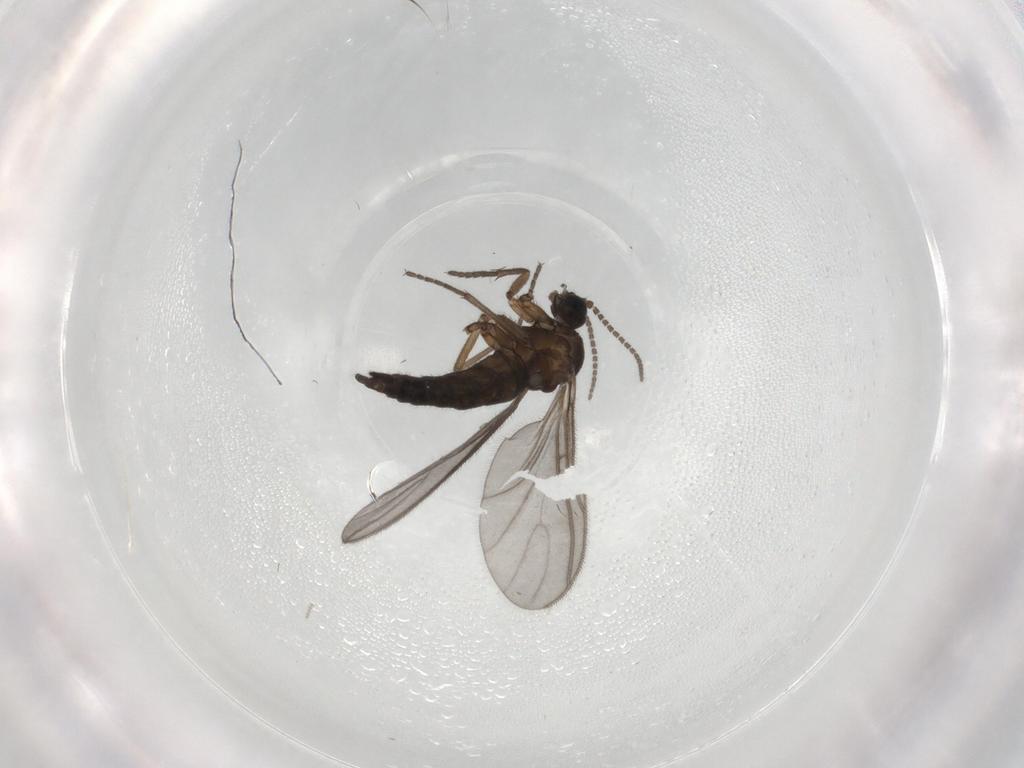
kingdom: Animalia
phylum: Arthropoda
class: Insecta
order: Diptera
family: Sciaridae
